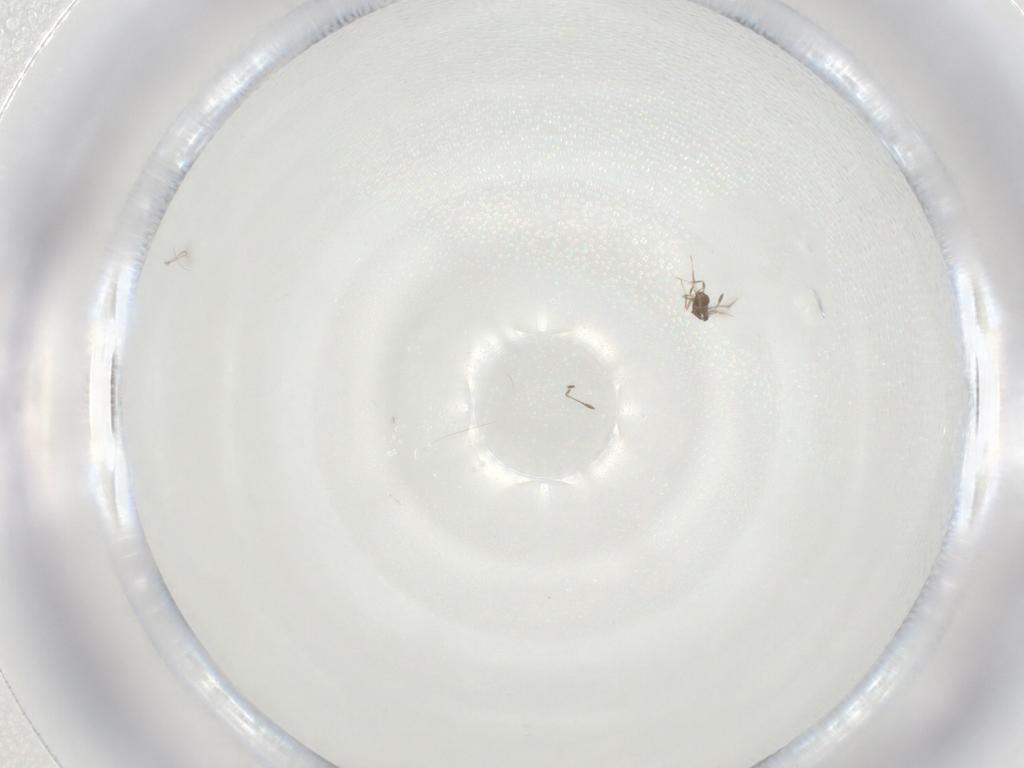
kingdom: Animalia
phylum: Arthropoda
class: Insecta
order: Hymenoptera
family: Mymaridae
